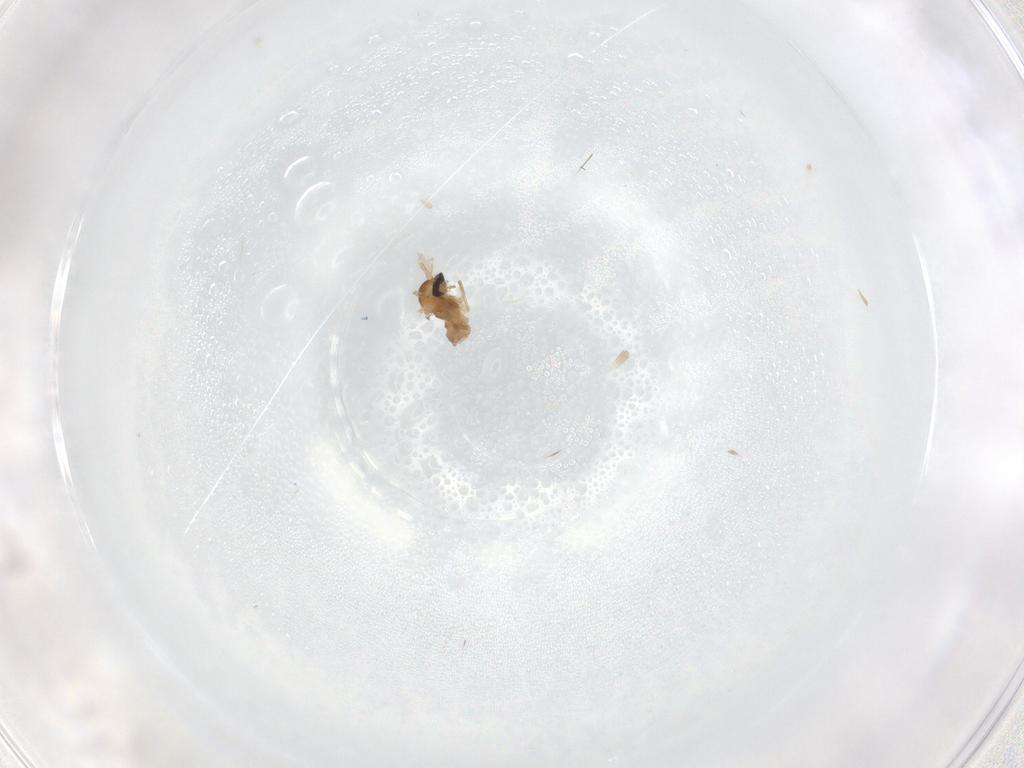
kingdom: Animalia
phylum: Arthropoda
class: Insecta
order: Diptera
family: Cecidomyiidae
